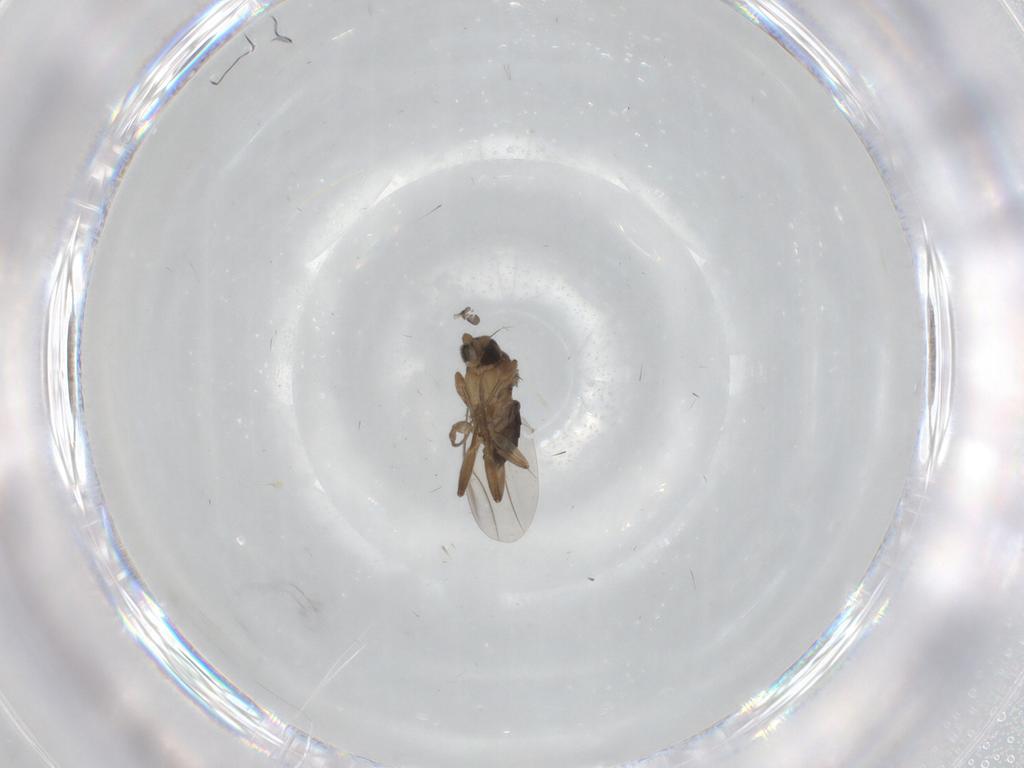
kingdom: Animalia
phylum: Arthropoda
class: Insecta
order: Diptera
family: Phoridae
